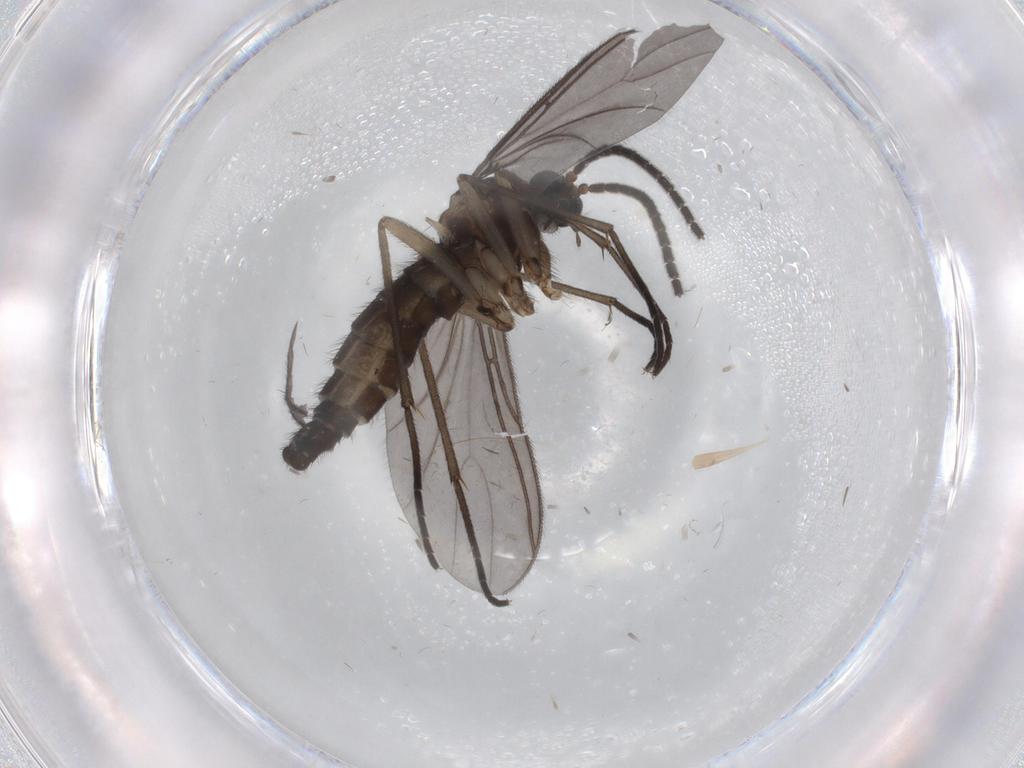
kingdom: Animalia
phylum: Arthropoda
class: Insecta
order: Diptera
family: Sciaridae
